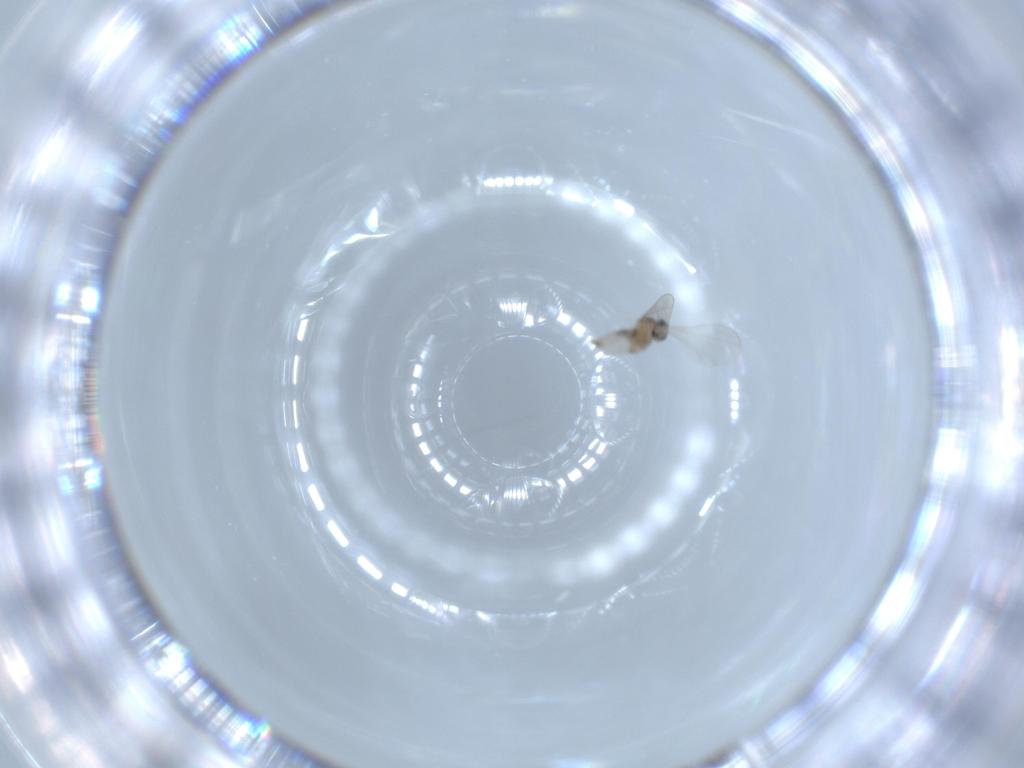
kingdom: Animalia
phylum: Arthropoda
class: Insecta
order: Diptera
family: Cecidomyiidae
